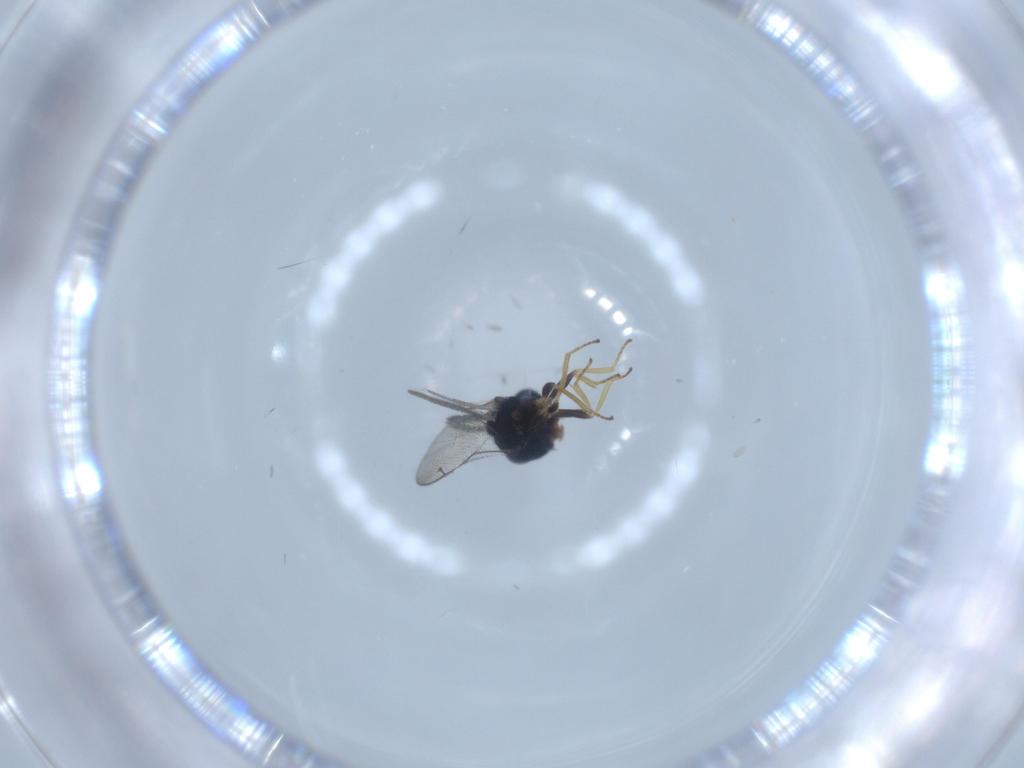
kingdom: Animalia
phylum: Arthropoda
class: Insecta
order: Hymenoptera
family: Pteromalidae
